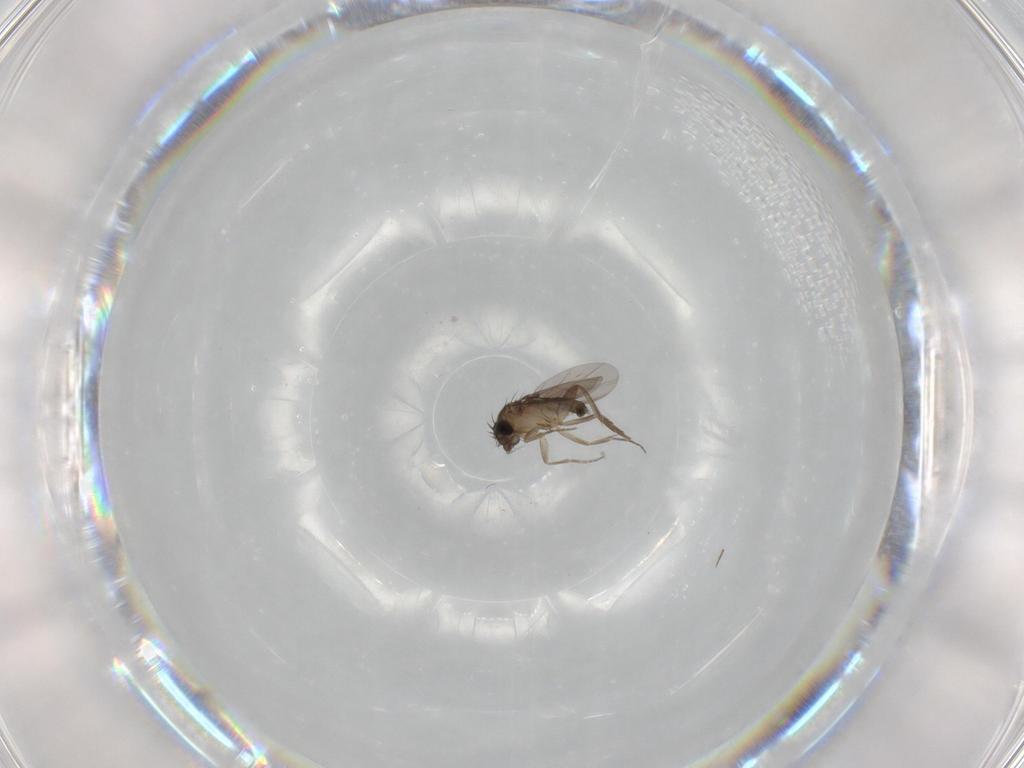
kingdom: Animalia
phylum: Arthropoda
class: Insecta
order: Diptera
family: Phoridae
